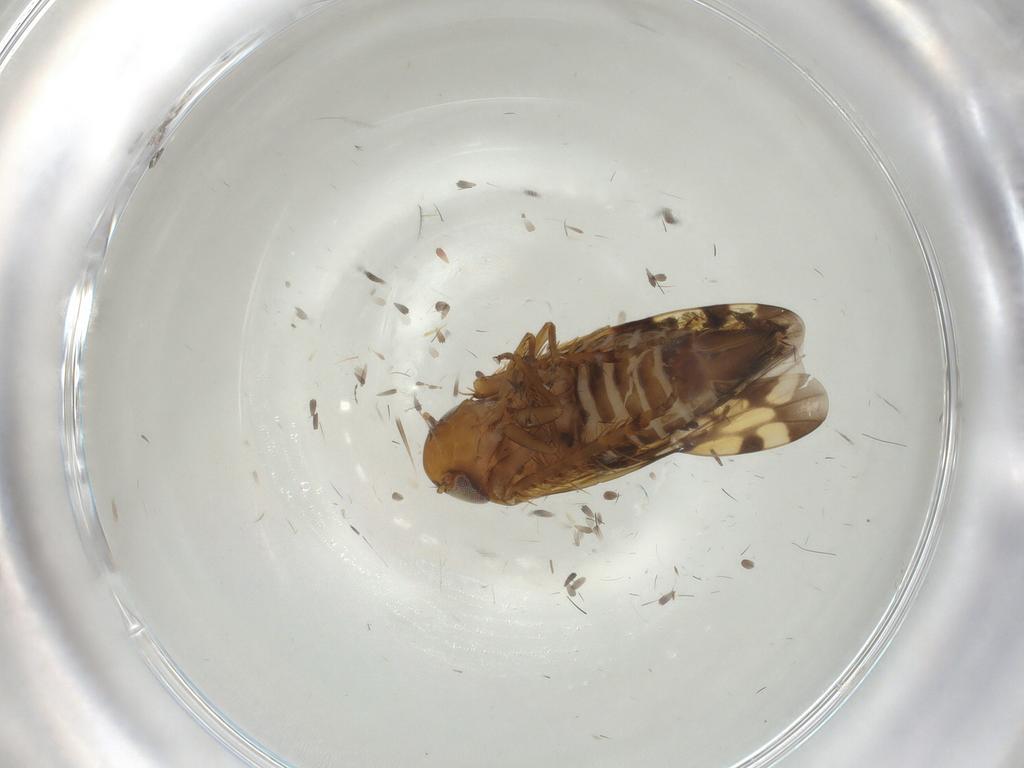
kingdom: Animalia
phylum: Arthropoda
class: Insecta
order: Hemiptera
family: Cicadellidae
